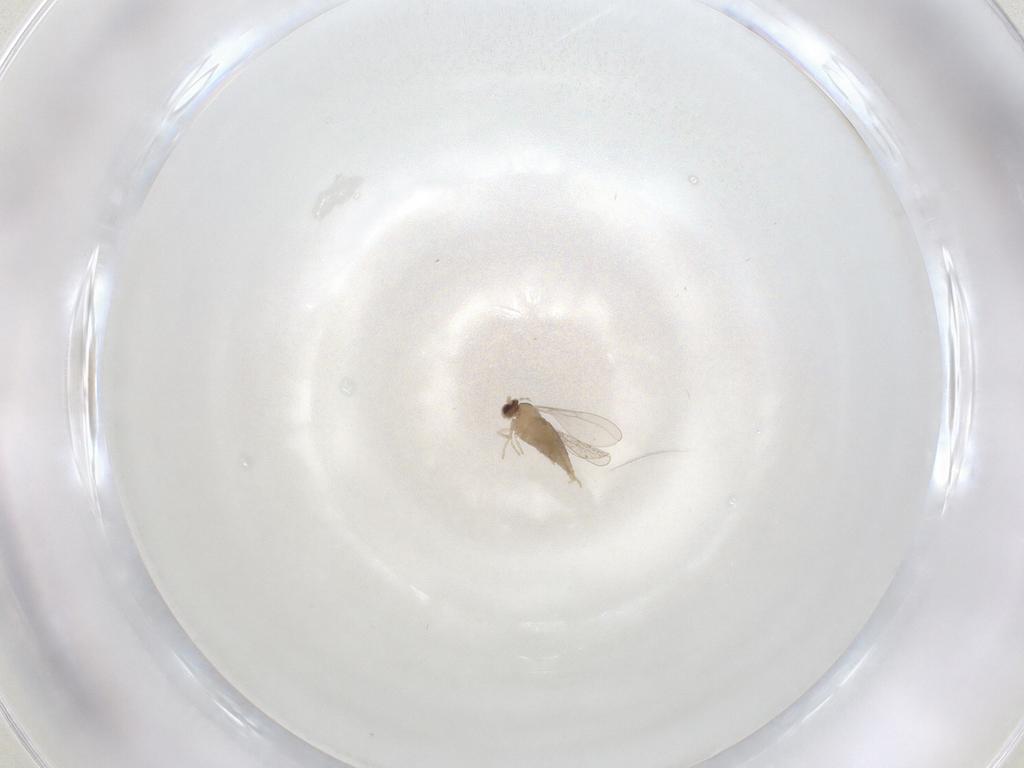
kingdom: Animalia
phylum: Arthropoda
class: Insecta
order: Diptera
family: Cecidomyiidae
